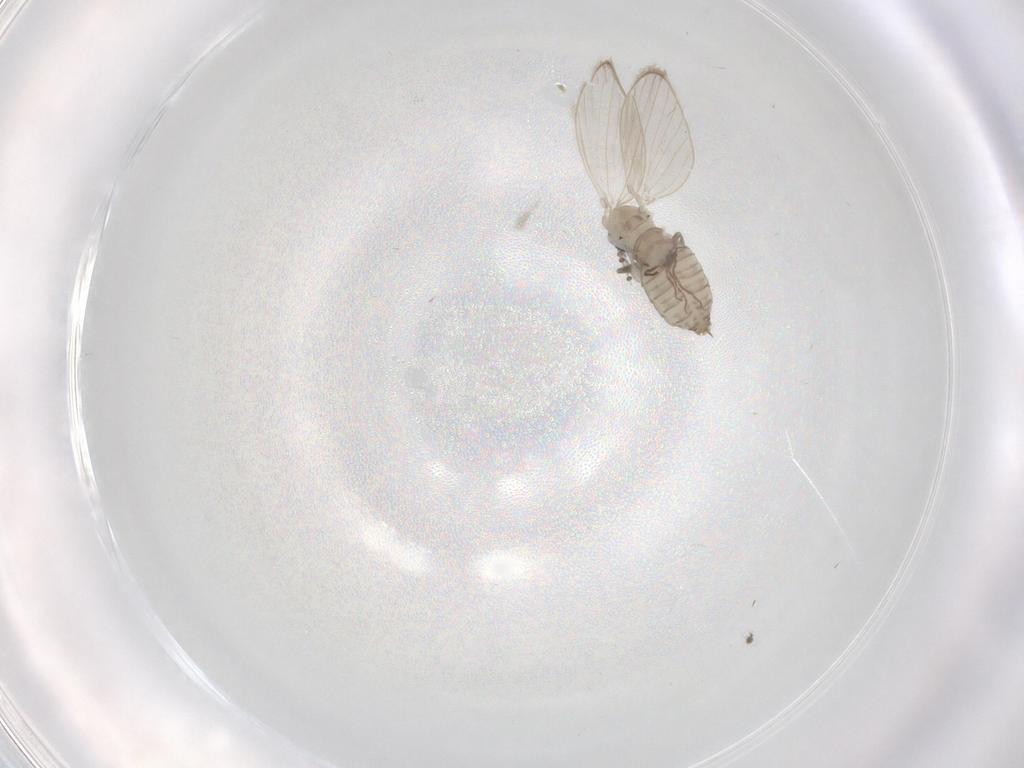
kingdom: Animalia
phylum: Arthropoda
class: Insecta
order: Diptera
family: Psychodidae
